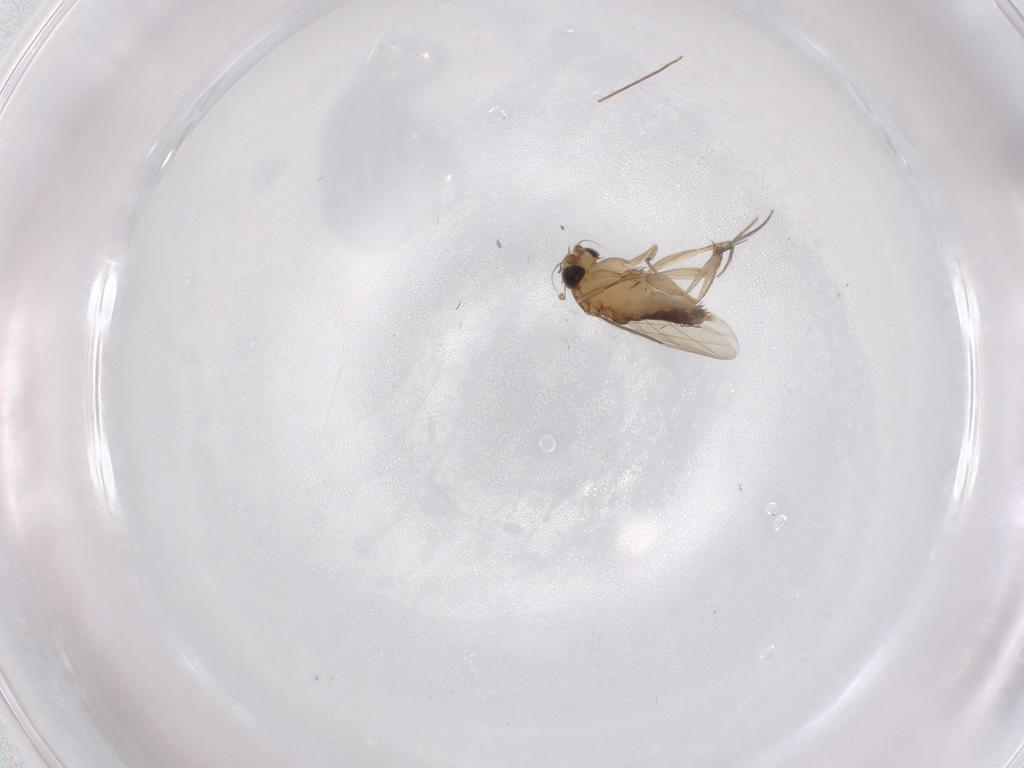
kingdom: Animalia
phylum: Arthropoda
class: Insecta
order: Diptera
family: Phoridae
